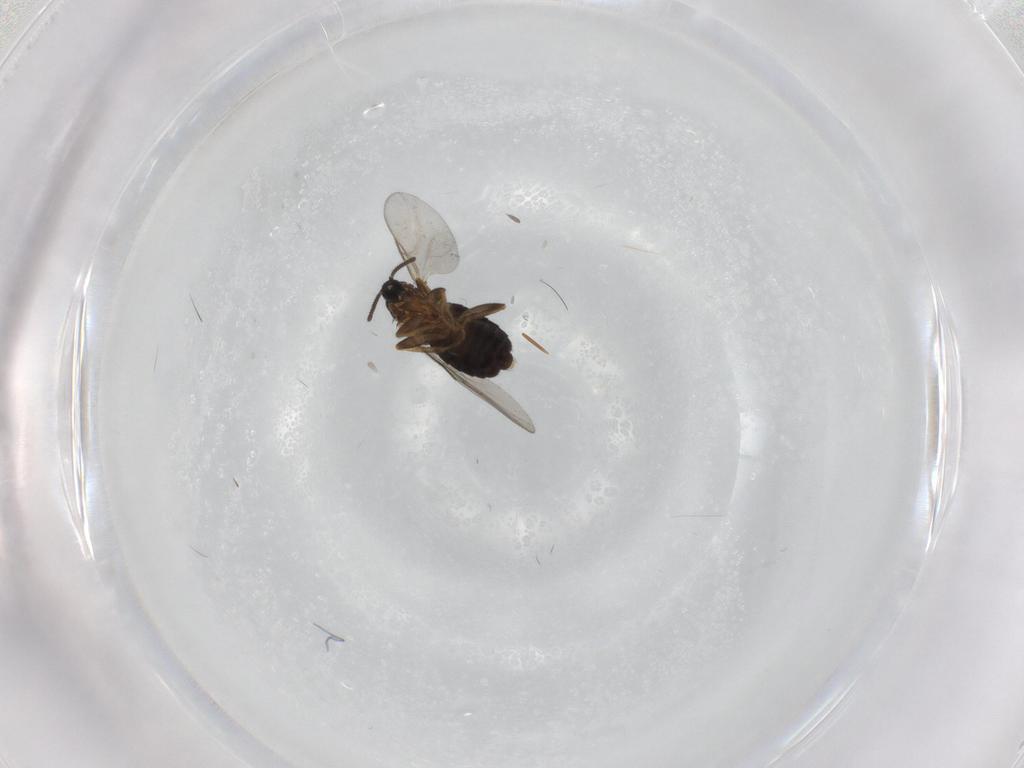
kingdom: Animalia
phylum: Arthropoda
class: Insecta
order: Diptera
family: Scatopsidae
